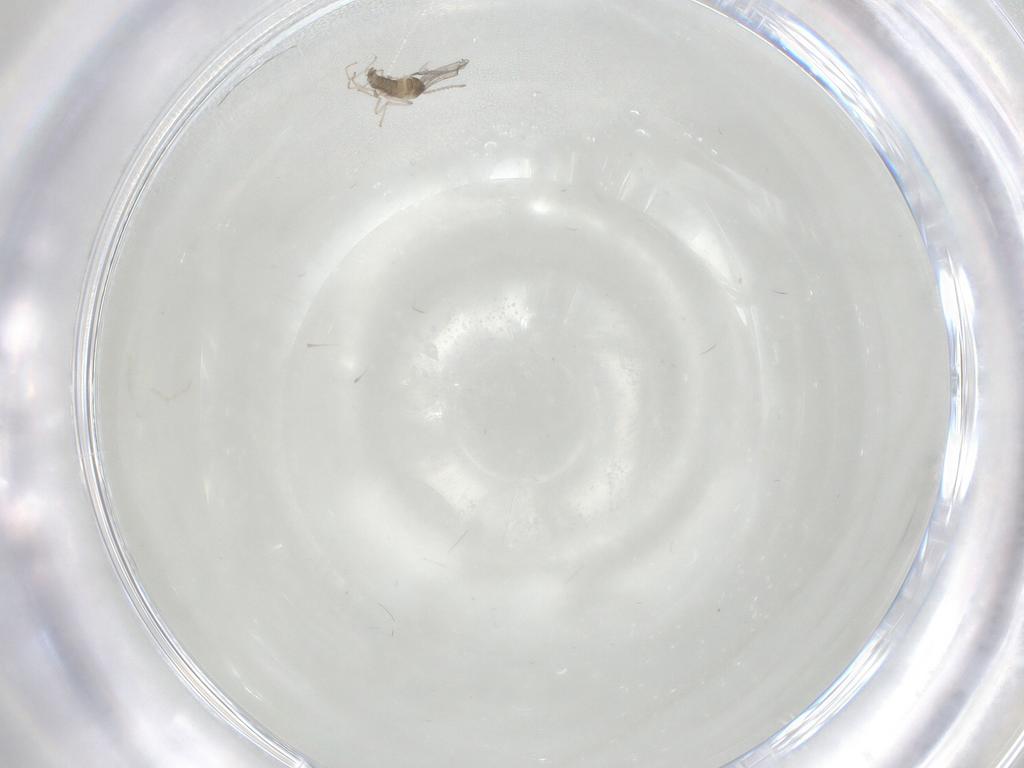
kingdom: Animalia
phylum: Arthropoda
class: Insecta
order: Diptera
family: Cecidomyiidae
